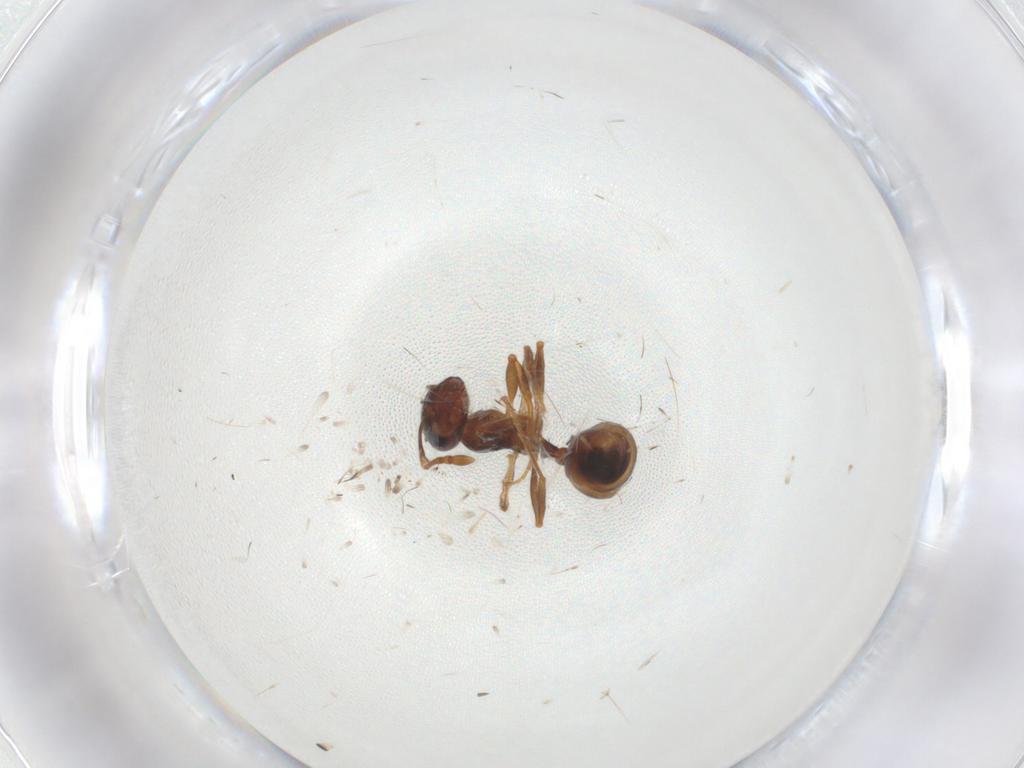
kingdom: Animalia
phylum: Arthropoda
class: Insecta
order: Hymenoptera
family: Formicidae
